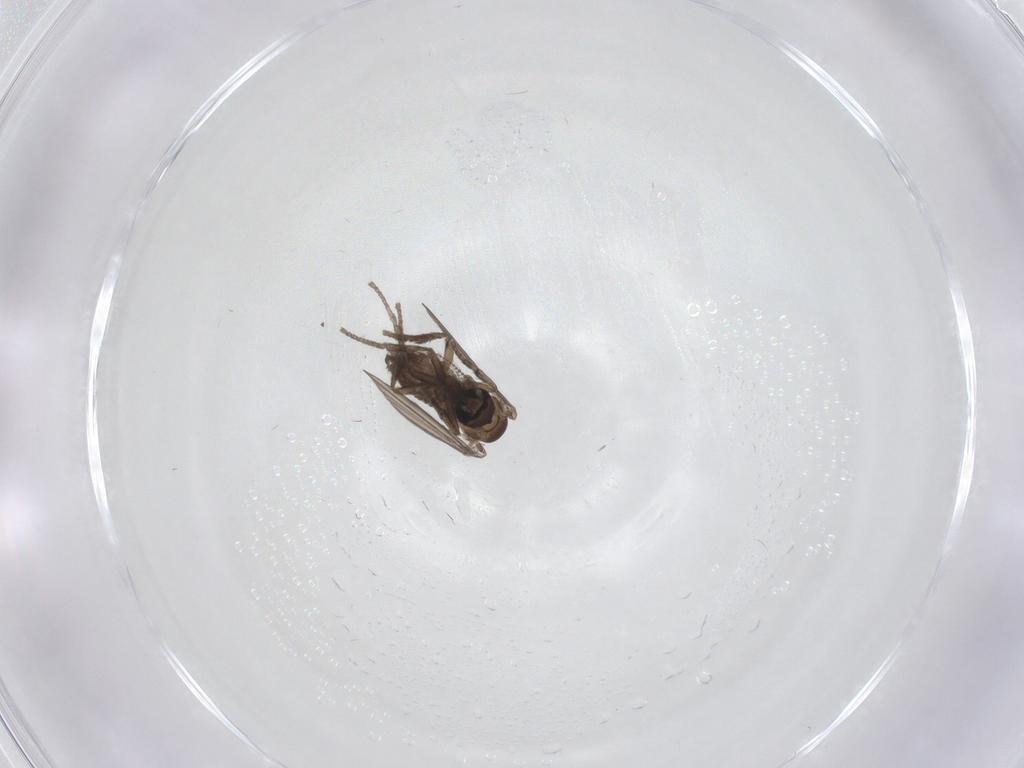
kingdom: Animalia
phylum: Arthropoda
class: Insecta
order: Diptera
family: Psychodidae
